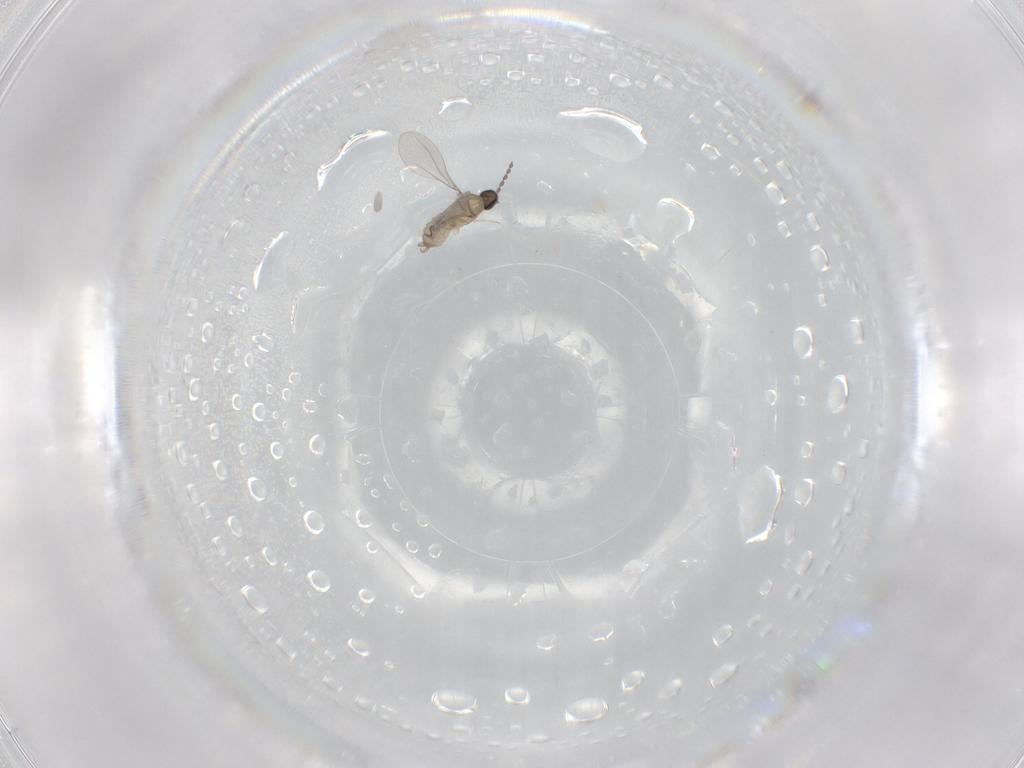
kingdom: Animalia
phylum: Arthropoda
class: Insecta
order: Diptera
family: Cecidomyiidae
